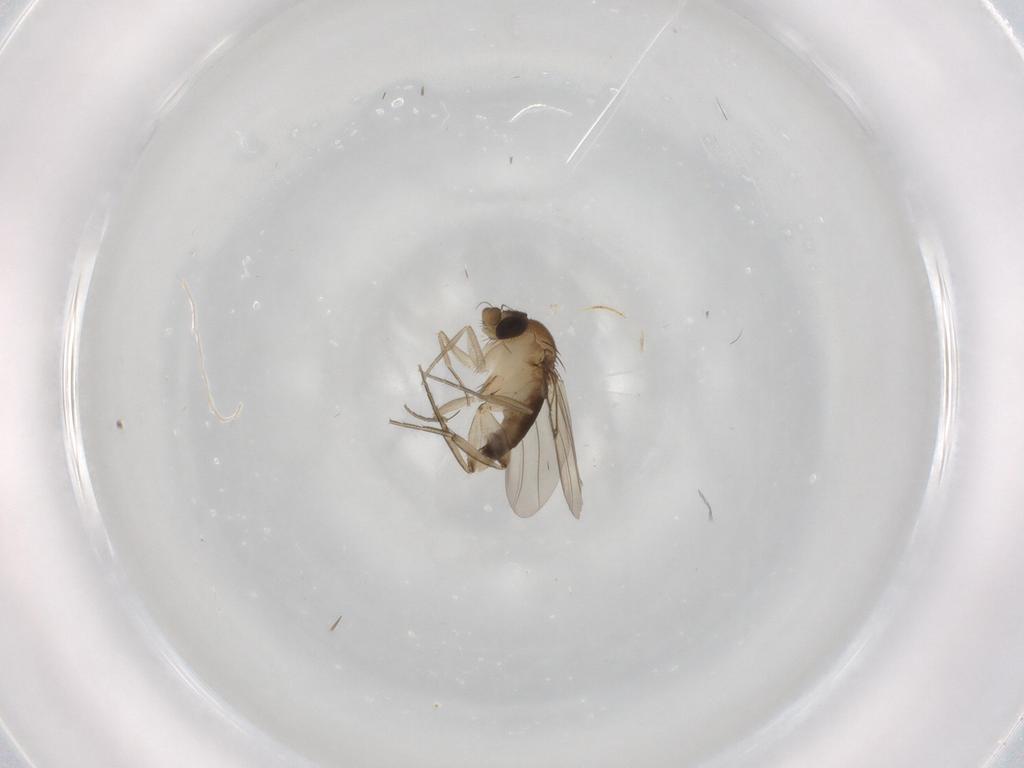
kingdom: Animalia
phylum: Arthropoda
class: Insecta
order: Diptera
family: Phoridae
